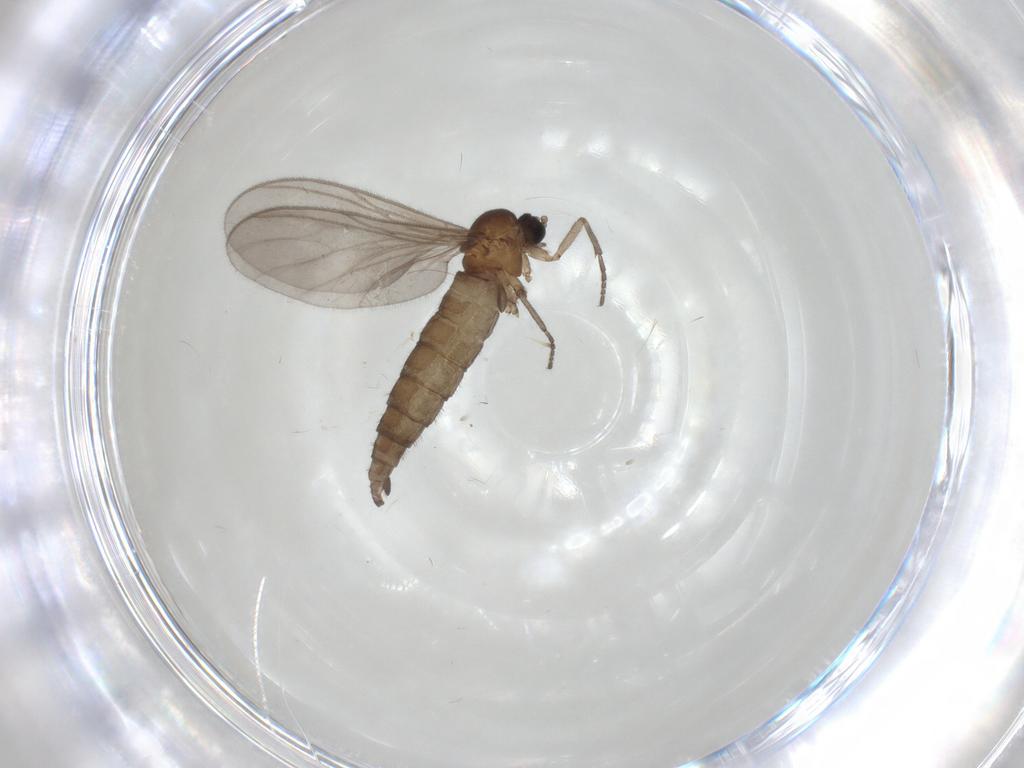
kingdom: Animalia
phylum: Arthropoda
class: Insecta
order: Diptera
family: Sciaridae
